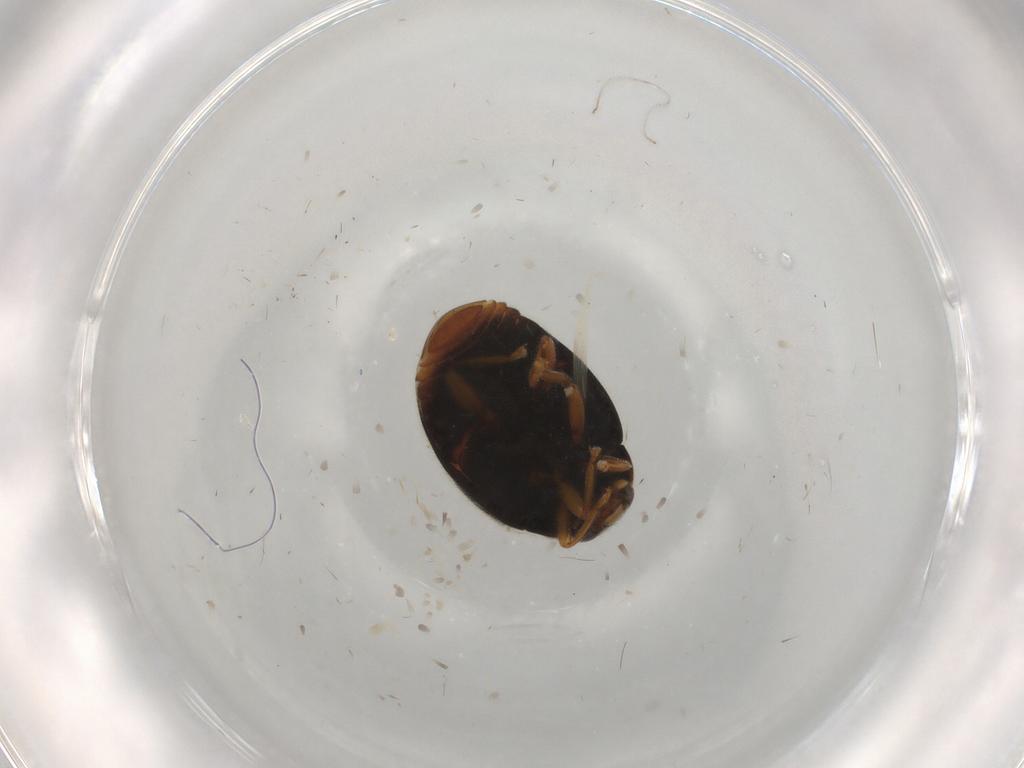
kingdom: Animalia
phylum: Arthropoda
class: Insecta
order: Coleoptera
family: Coccinellidae
